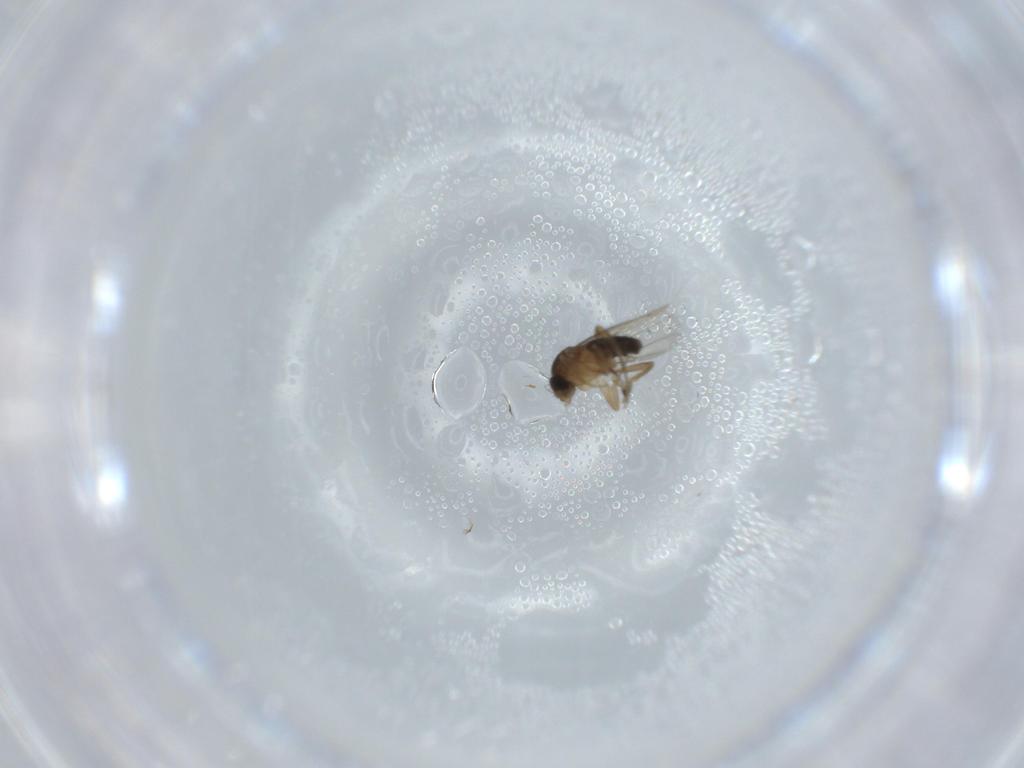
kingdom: Animalia
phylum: Arthropoda
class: Insecta
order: Diptera
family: Phoridae
